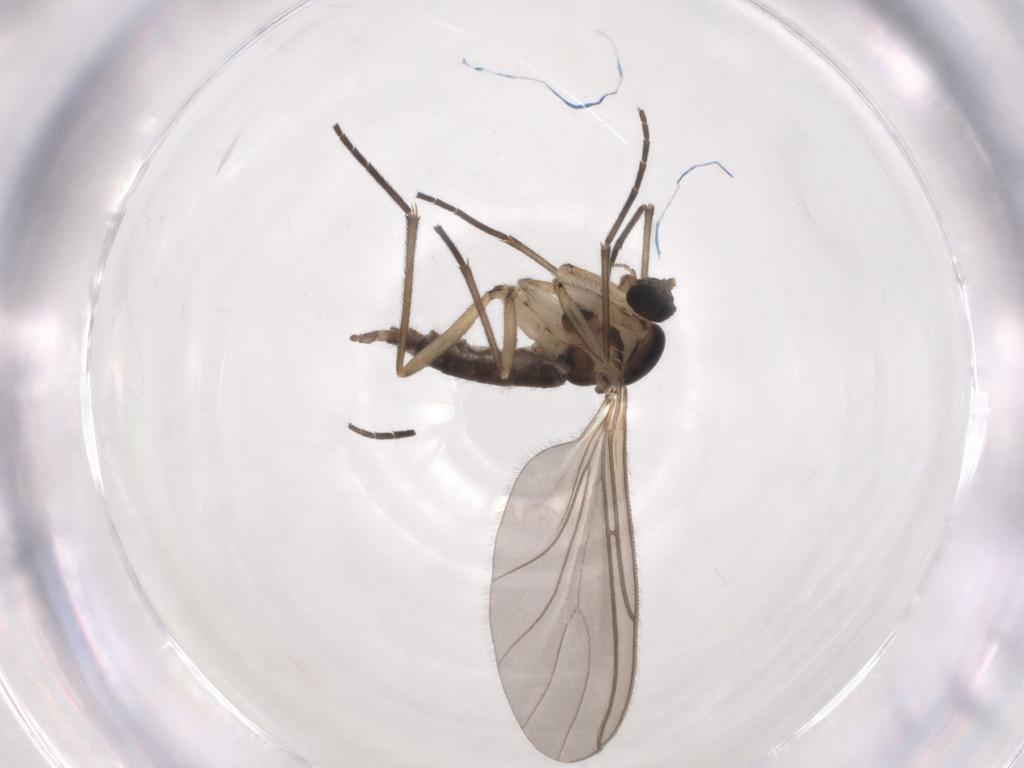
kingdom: Animalia
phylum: Arthropoda
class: Insecta
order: Diptera
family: Sciaridae
